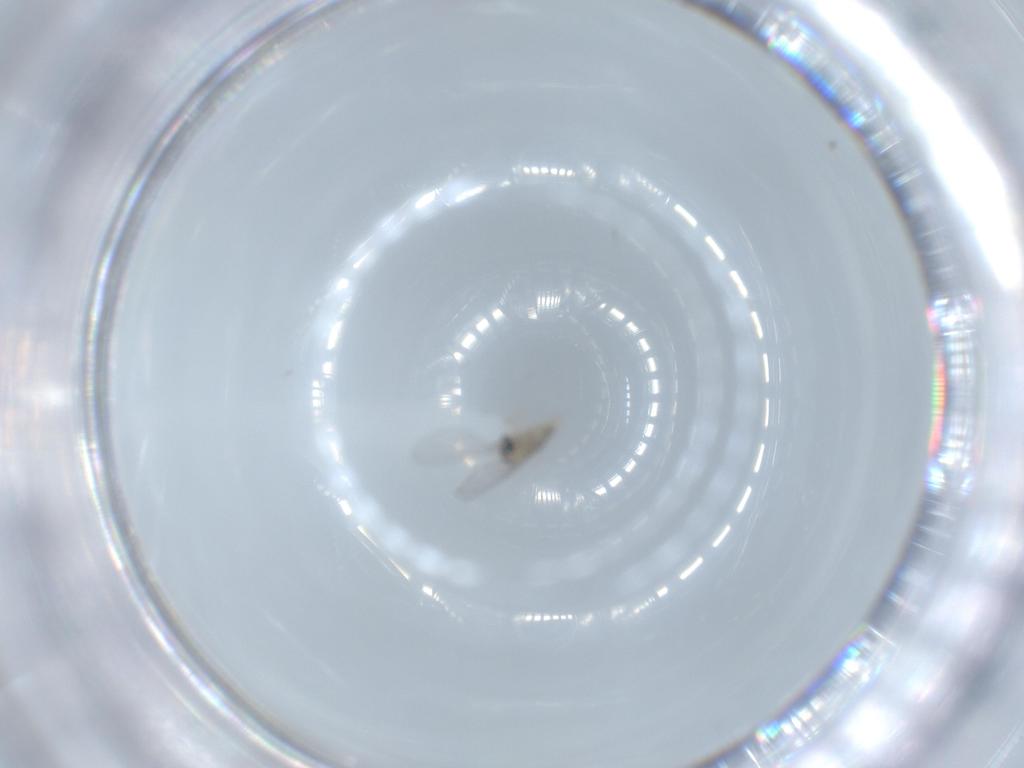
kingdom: Animalia
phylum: Arthropoda
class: Insecta
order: Diptera
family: Cecidomyiidae
